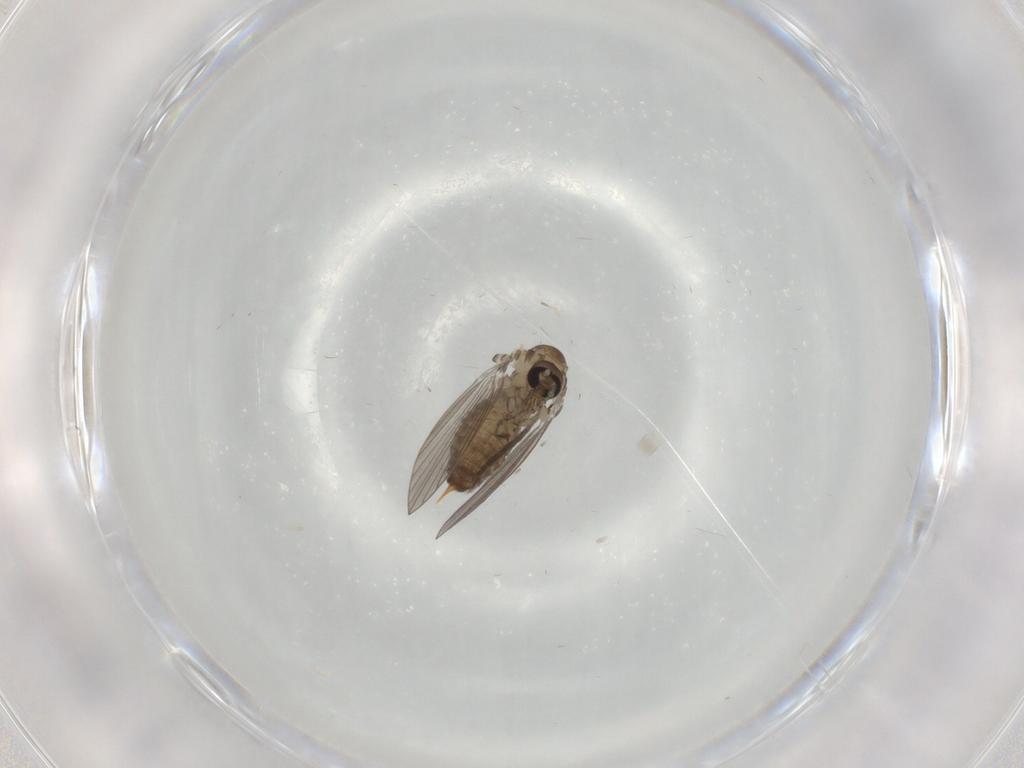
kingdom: Animalia
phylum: Arthropoda
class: Insecta
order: Diptera
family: Psychodidae
